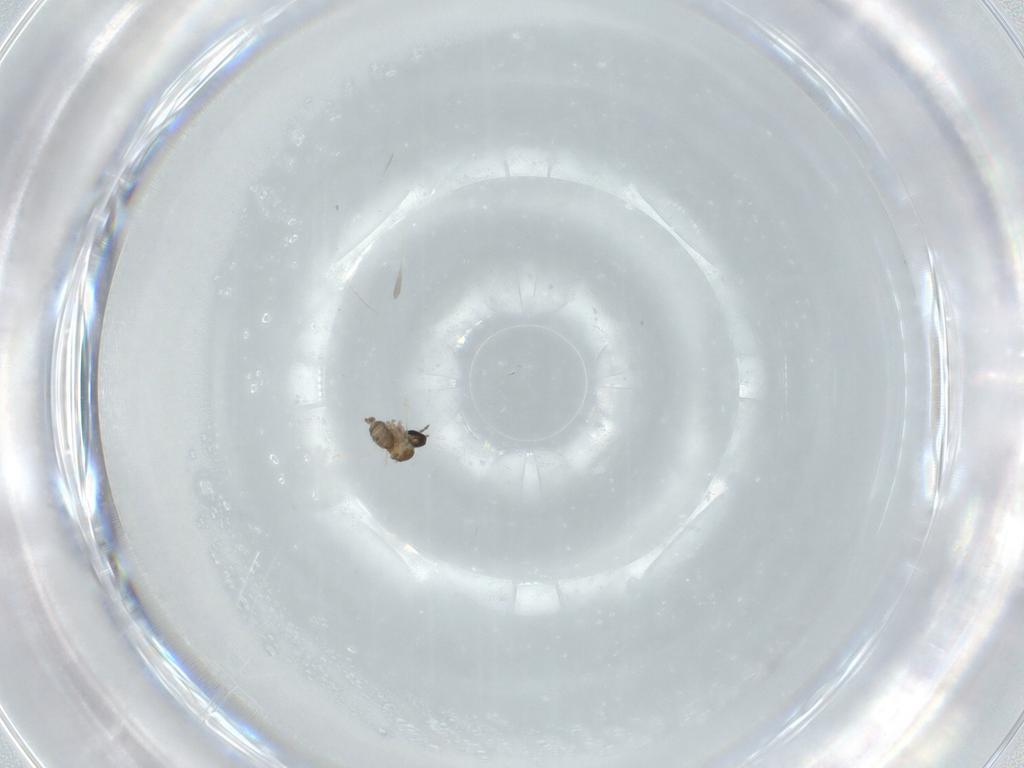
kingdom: Animalia
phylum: Arthropoda
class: Insecta
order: Diptera
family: Cecidomyiidae
